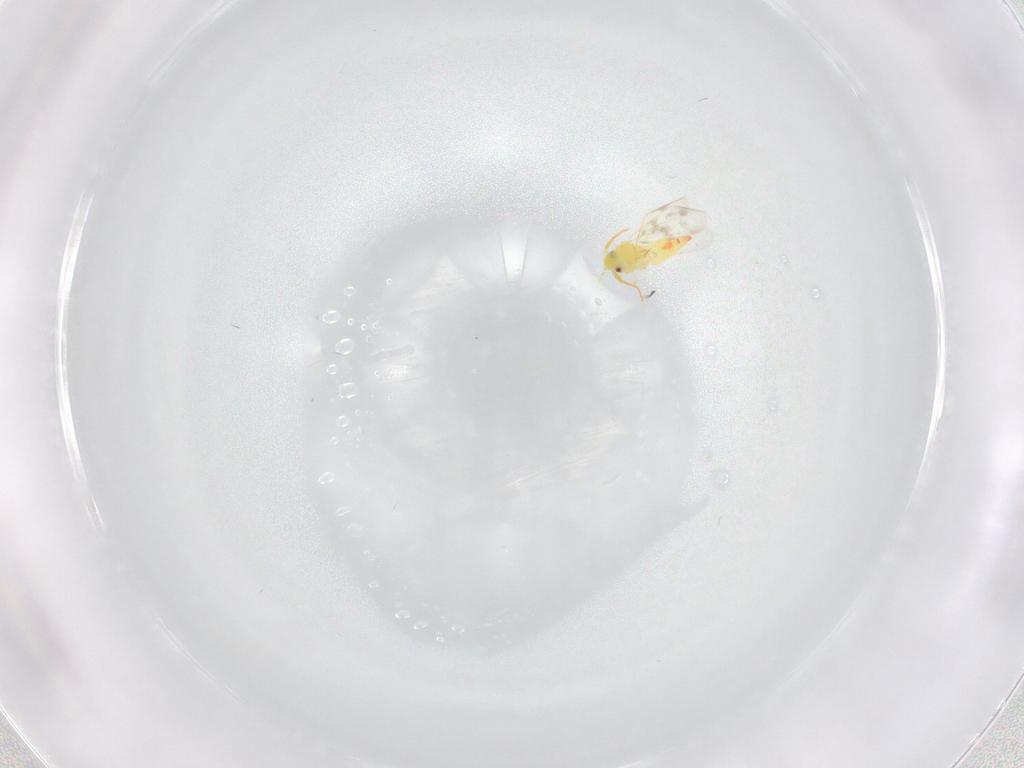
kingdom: Animalia
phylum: Arthropoda
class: Insecta
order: Hemiptera
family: Aleyrodidae
